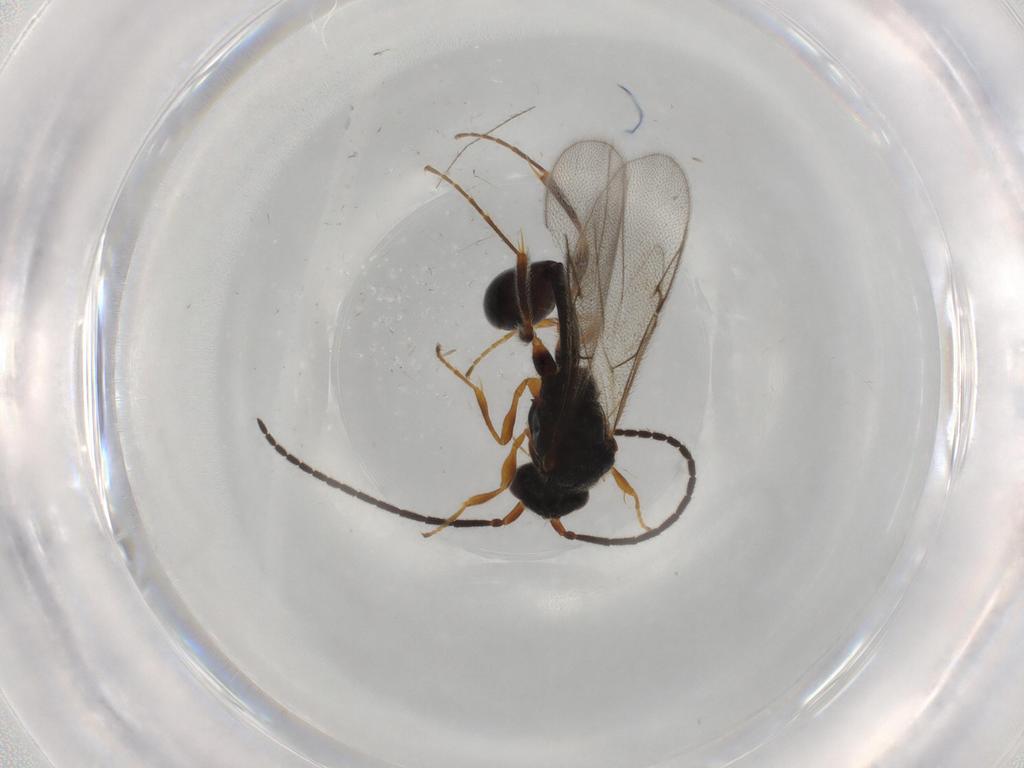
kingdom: Animalia
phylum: Arthropoda
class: Insecta
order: Hymenoptera
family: Diapriidae
